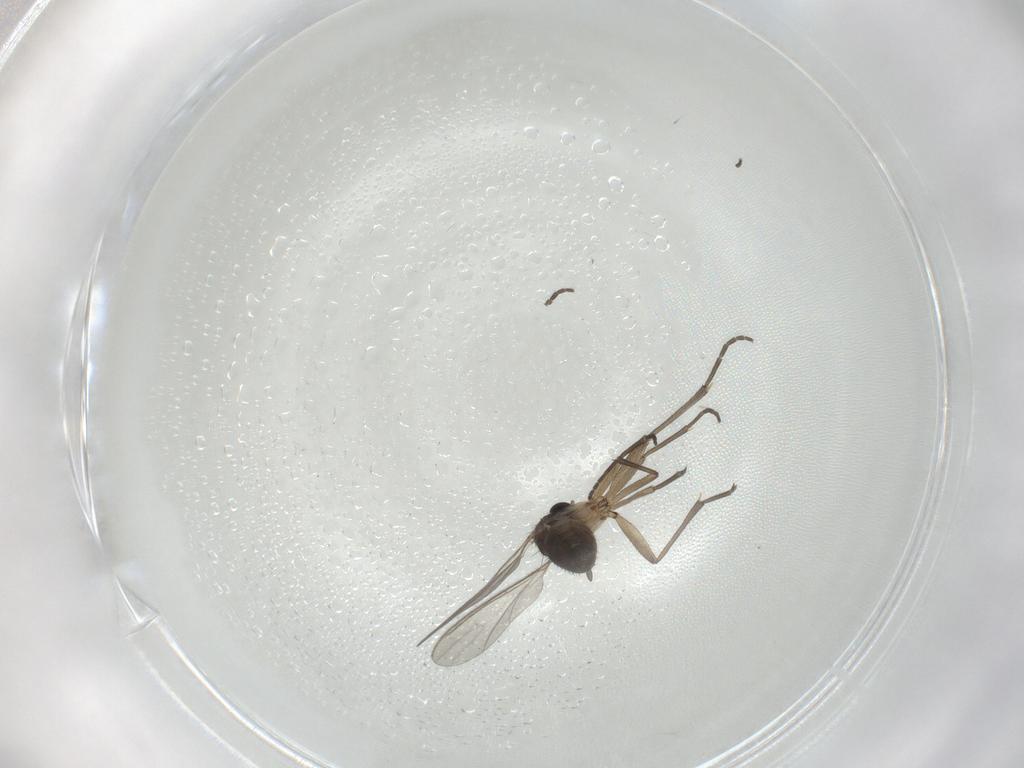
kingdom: Animalia
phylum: Arthropoda
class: Insecta
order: Diptera
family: Sciaridae
